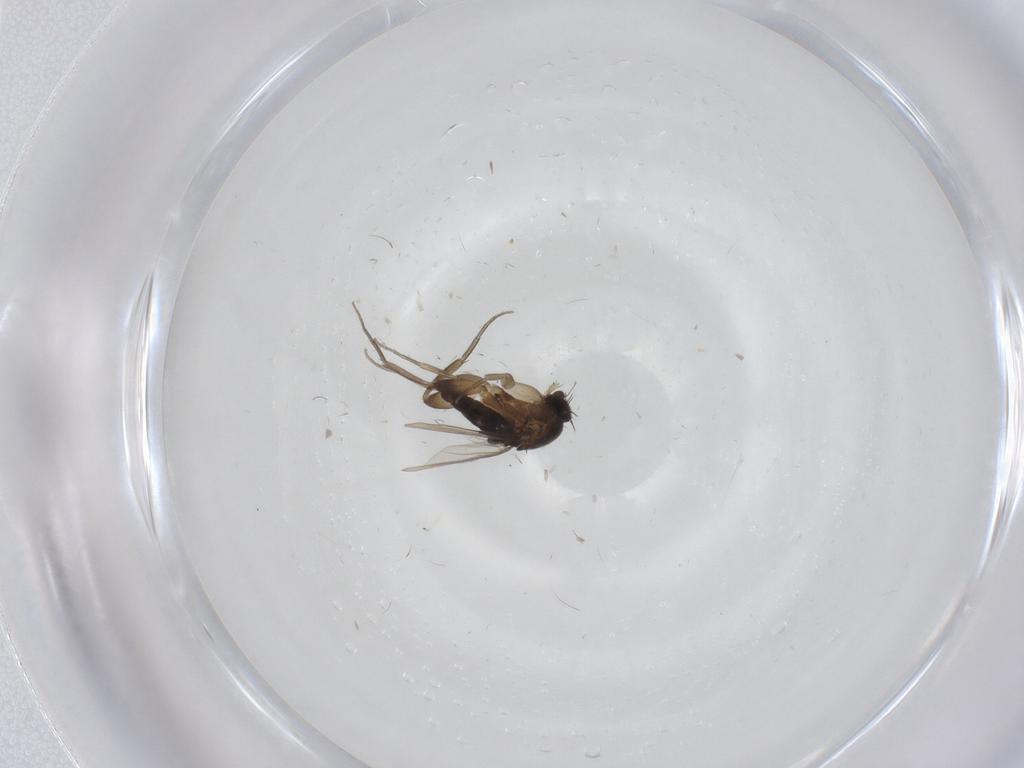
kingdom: Animalia
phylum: Arthropoda
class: Insecta
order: Diptera
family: Phoridae
